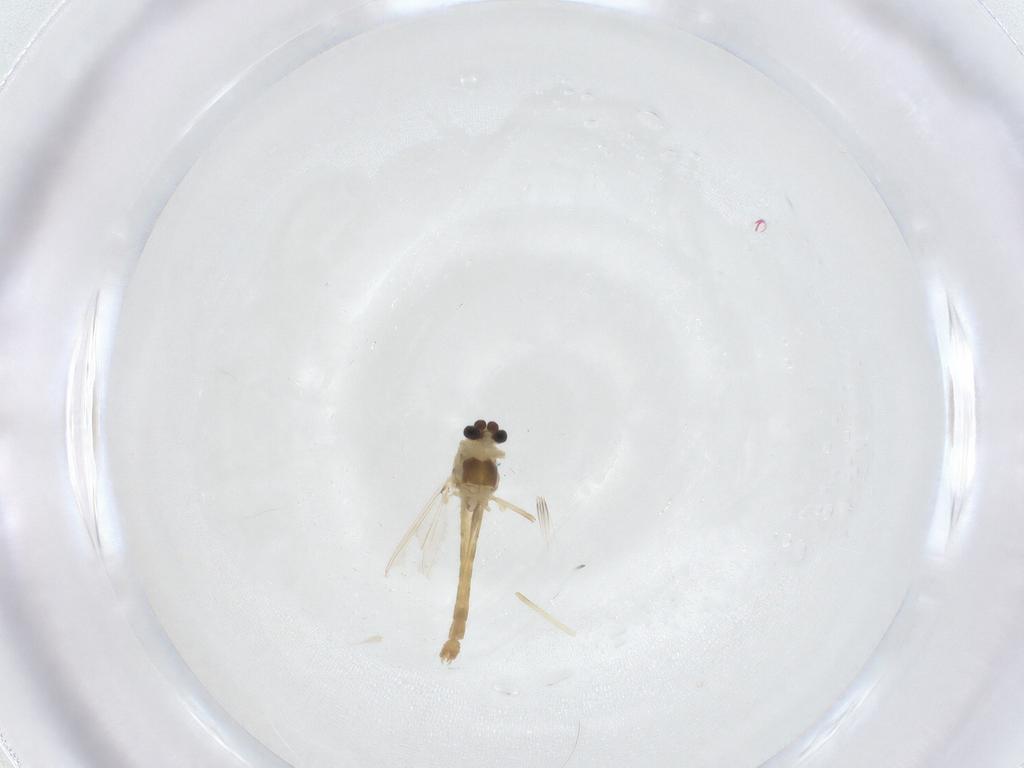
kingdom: Animalia
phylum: Arthropoda
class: Insecta
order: Diptera
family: Chironomidae
